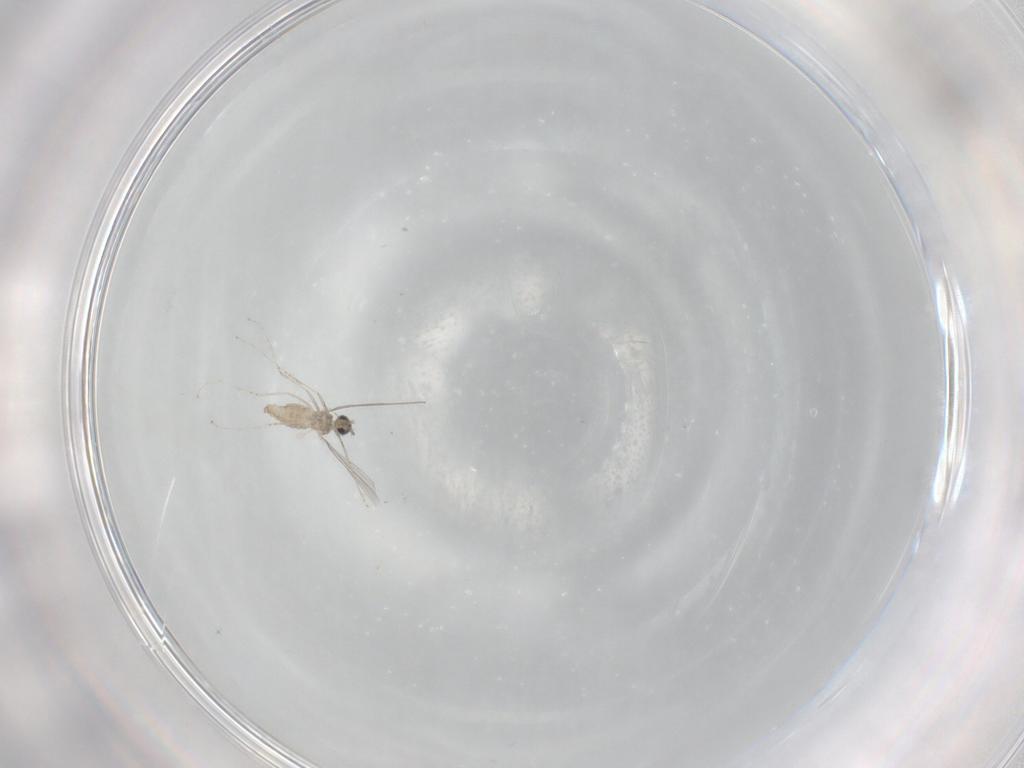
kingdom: Animalia
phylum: Arthropoda
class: Insecta
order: Diptera
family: Cecidomyiidae
